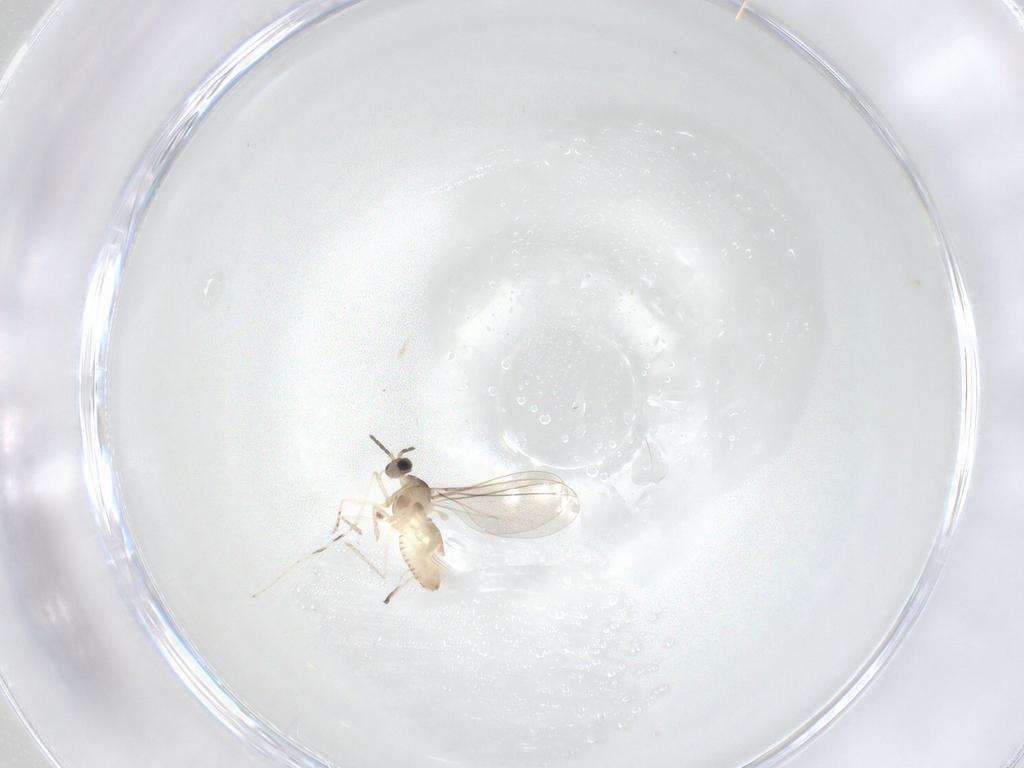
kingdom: Animalia
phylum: Arthropoda
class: Insecta
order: Diptera
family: Cecidomyiidae
